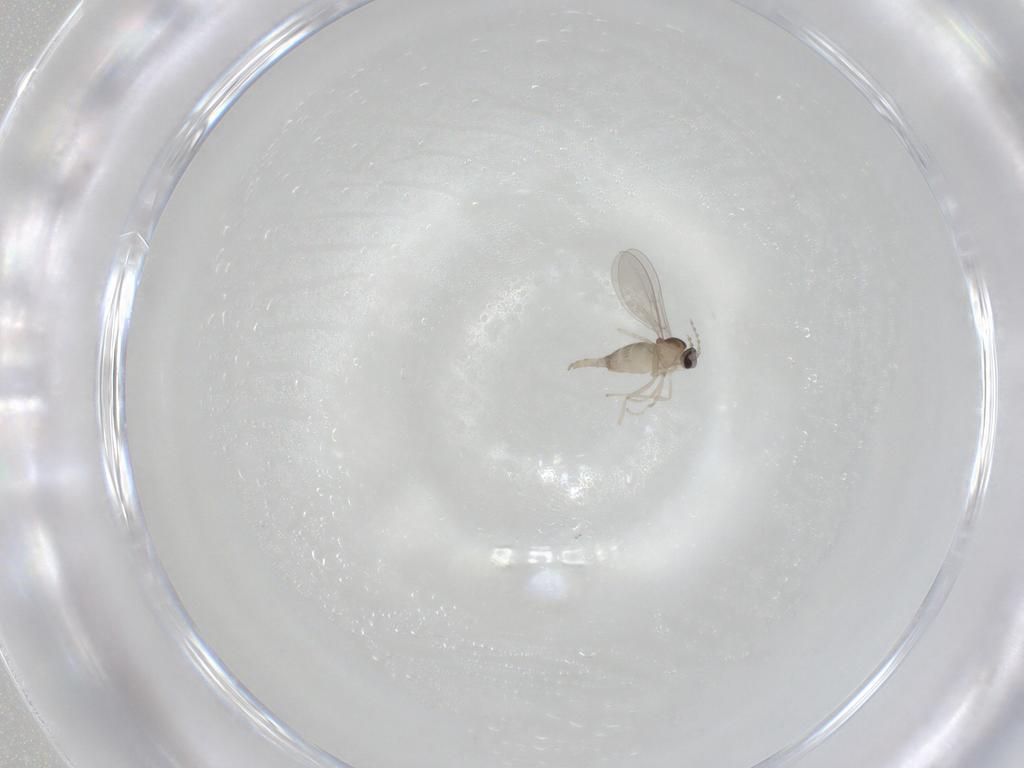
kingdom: Animalia
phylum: Arthropoda
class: Insecta
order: Diptera
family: Cecidomyiidae
